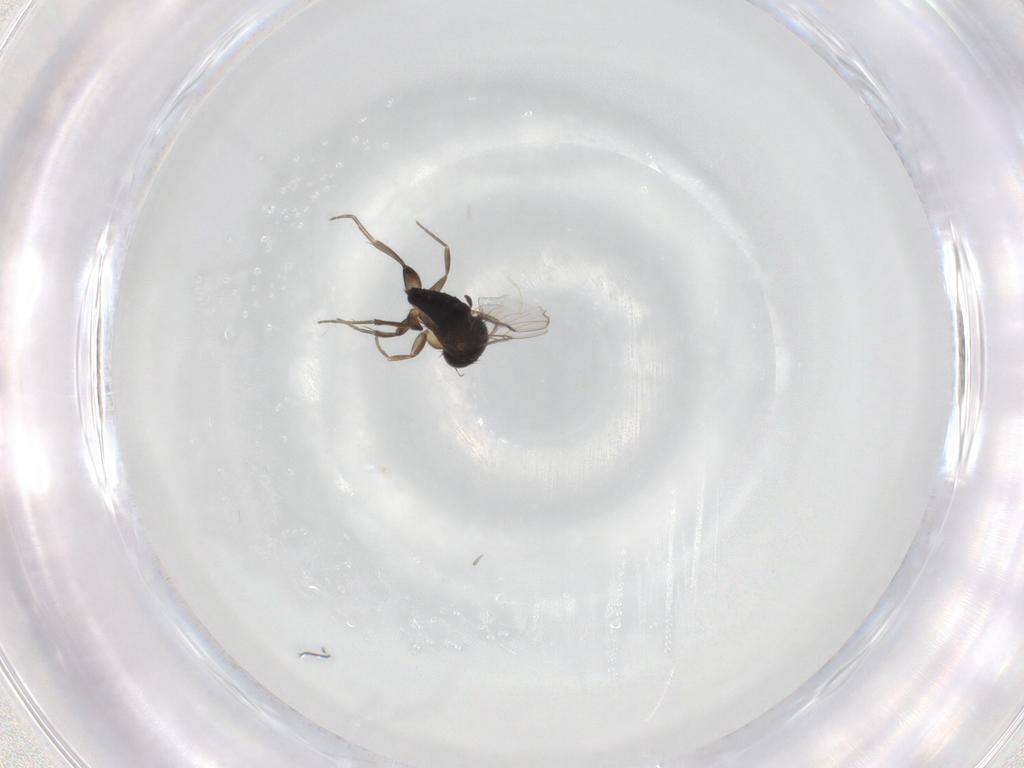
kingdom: Animalia
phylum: Arthropoda
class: Insecta
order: Diptera
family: Phoridae
